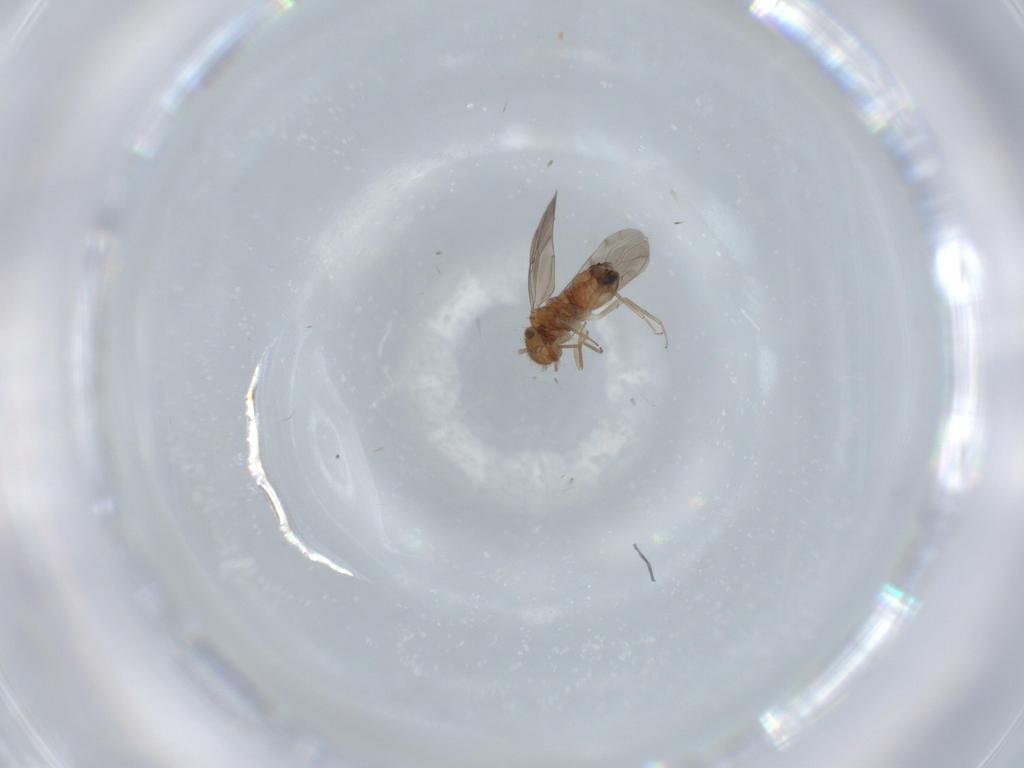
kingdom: Animalia
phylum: Arthropoda
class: Insecta
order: Psocodea
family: Ectopsocidae
